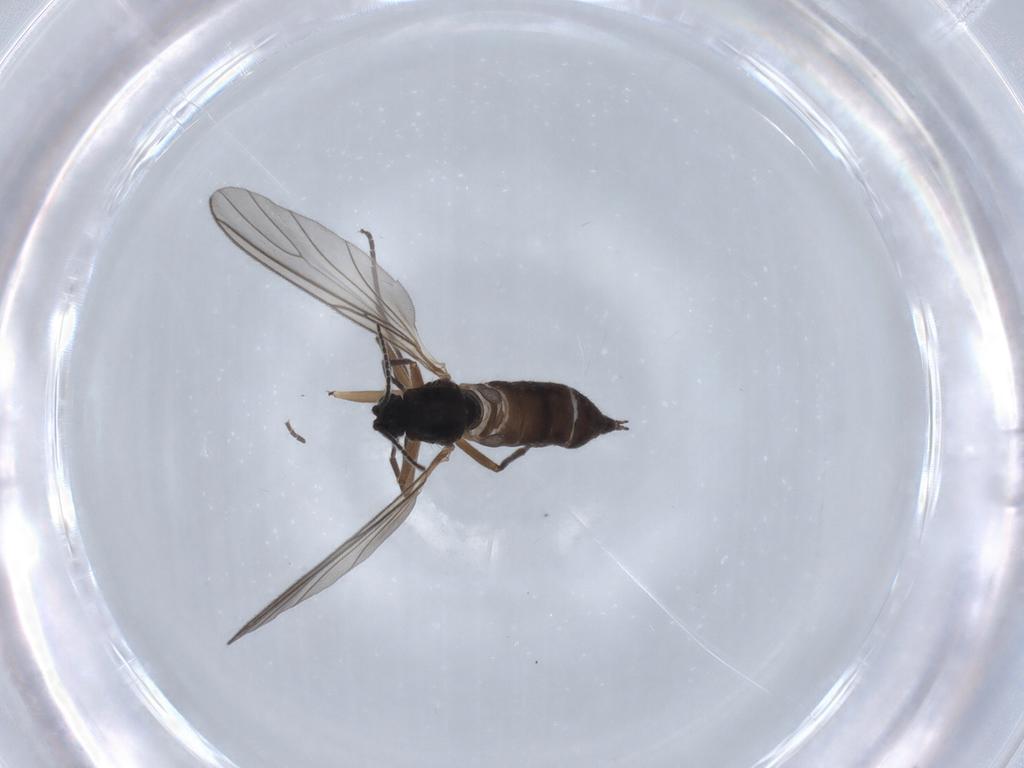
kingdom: Animalia
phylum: Arthropoda
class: Insecta
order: Diptera
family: Sciaridae
